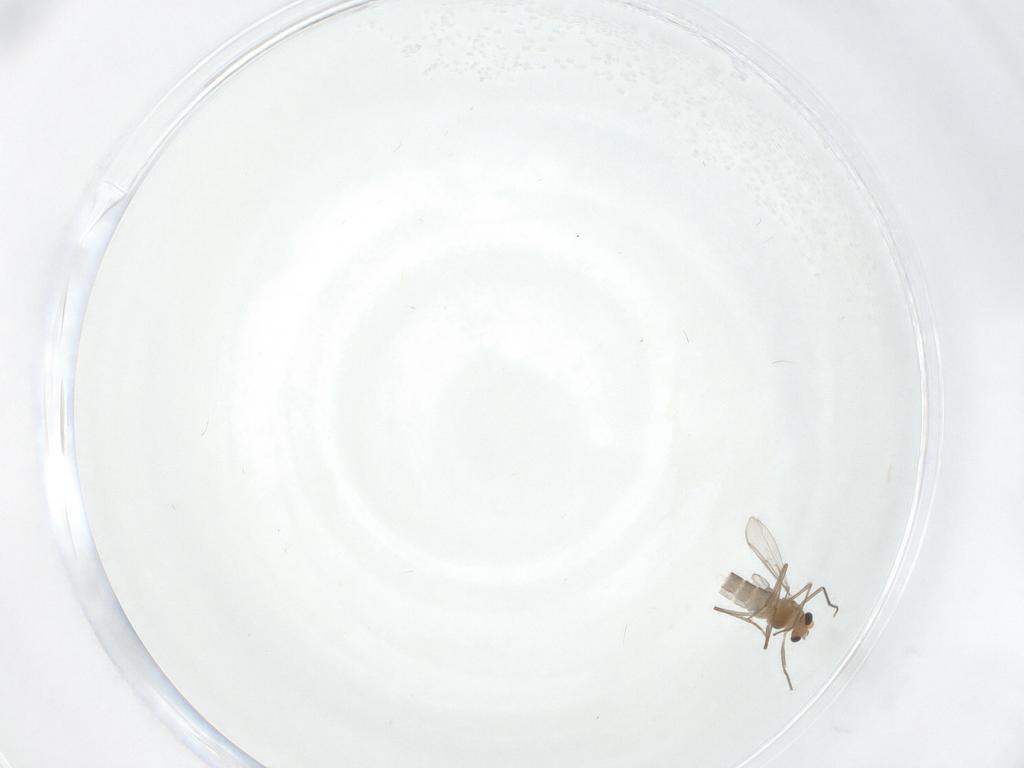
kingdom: Animalia
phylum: Arthropoda
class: Insecta
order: Diptera
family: Chironomidae
